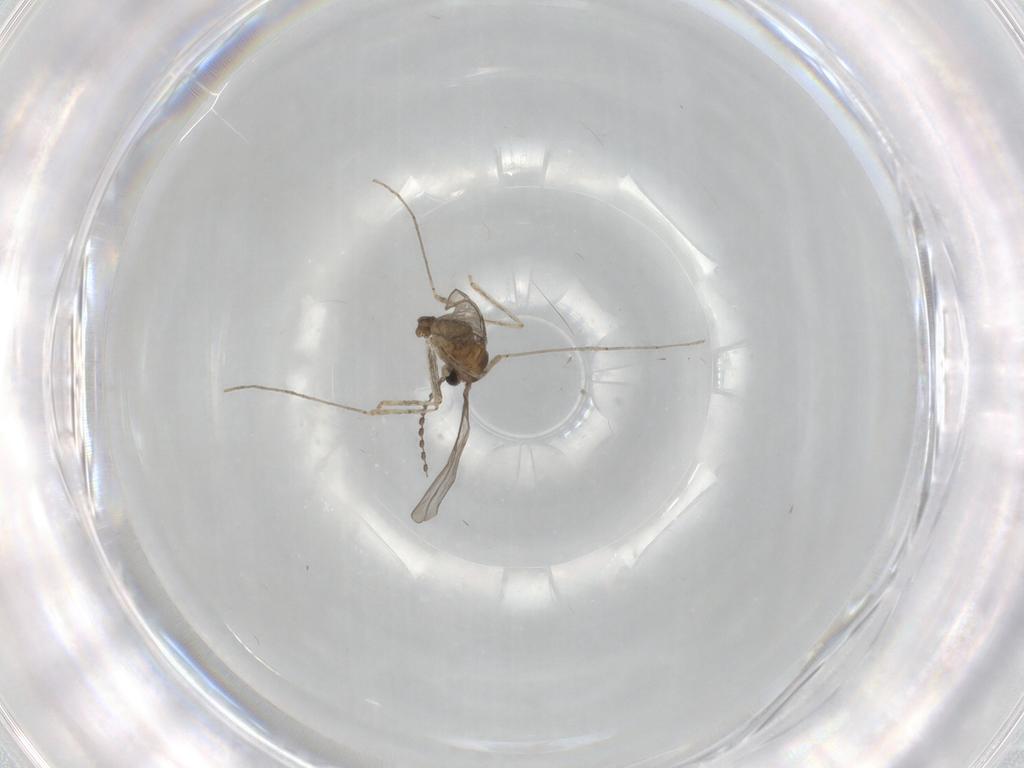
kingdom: Animalia
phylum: Arthropoda
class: Insecta
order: Diptera
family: Cecidomyiidae
